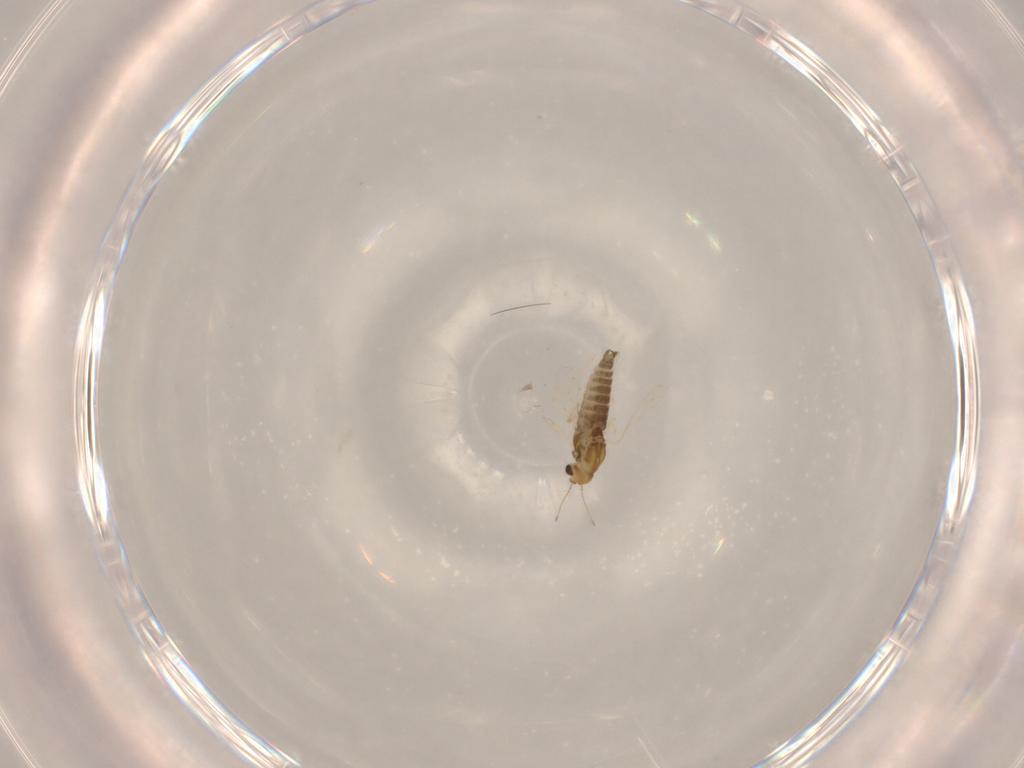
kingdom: Animalia
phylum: Arthropoda
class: Insecta
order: Diptera
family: Chironomidae
